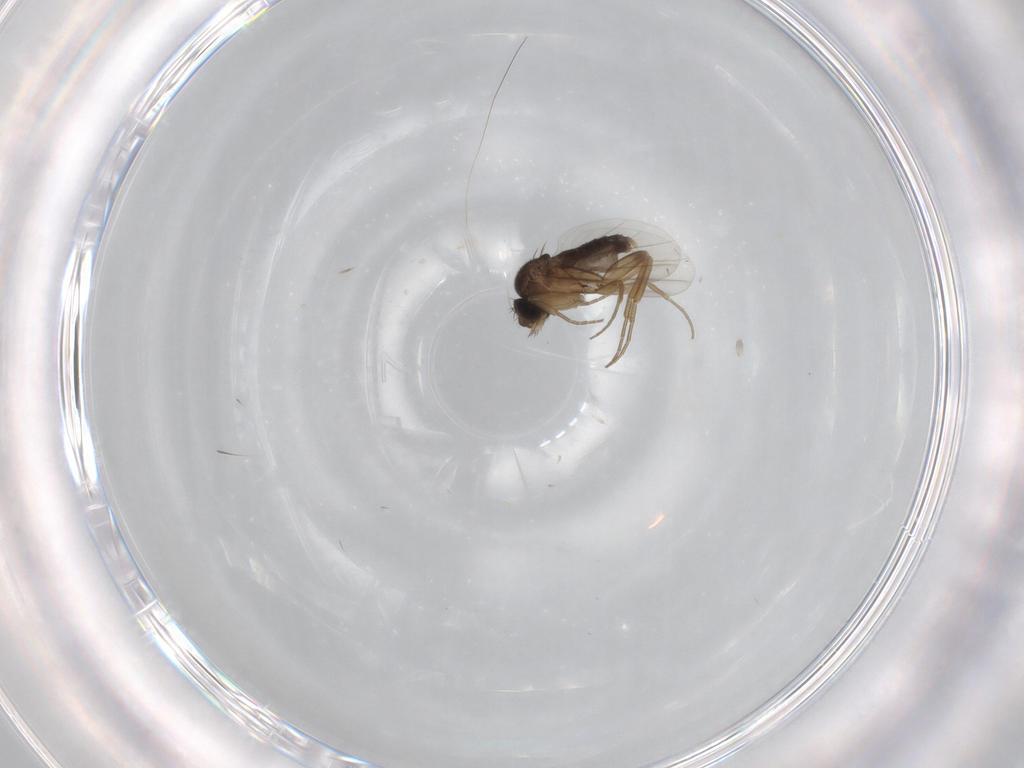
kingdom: Animalia
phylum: Arthropoda
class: Insecta
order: Diptera
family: Phoridae
